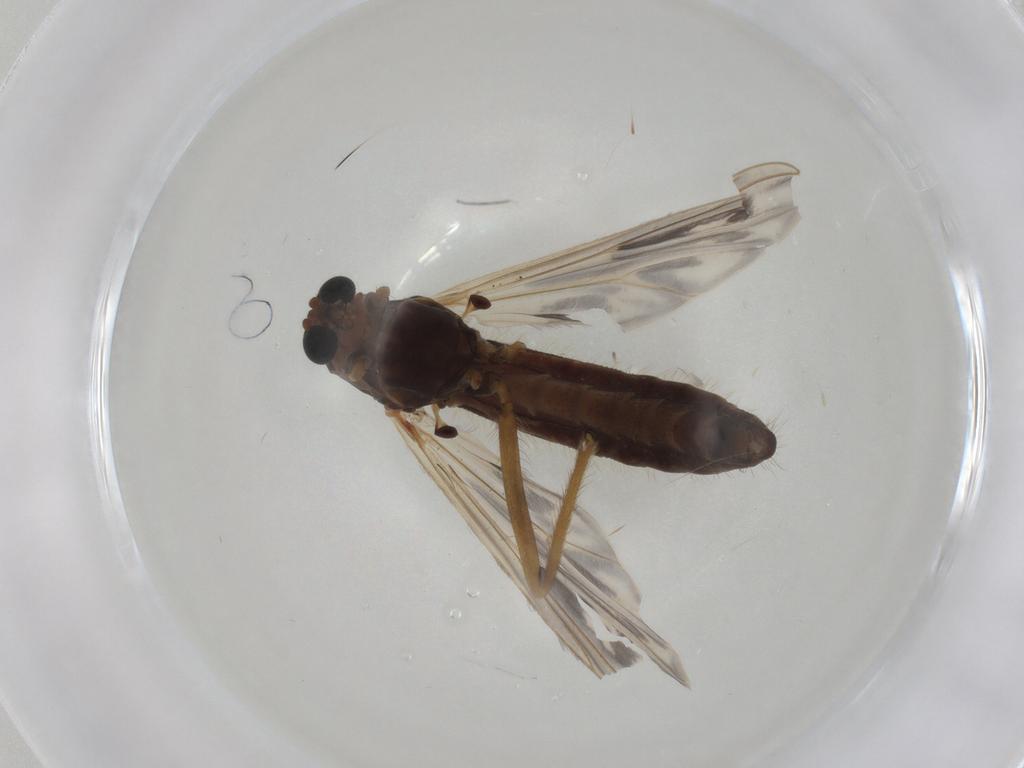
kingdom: Animalia
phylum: Arthropoda
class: Insecta
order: Diptera
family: Chironomidae
